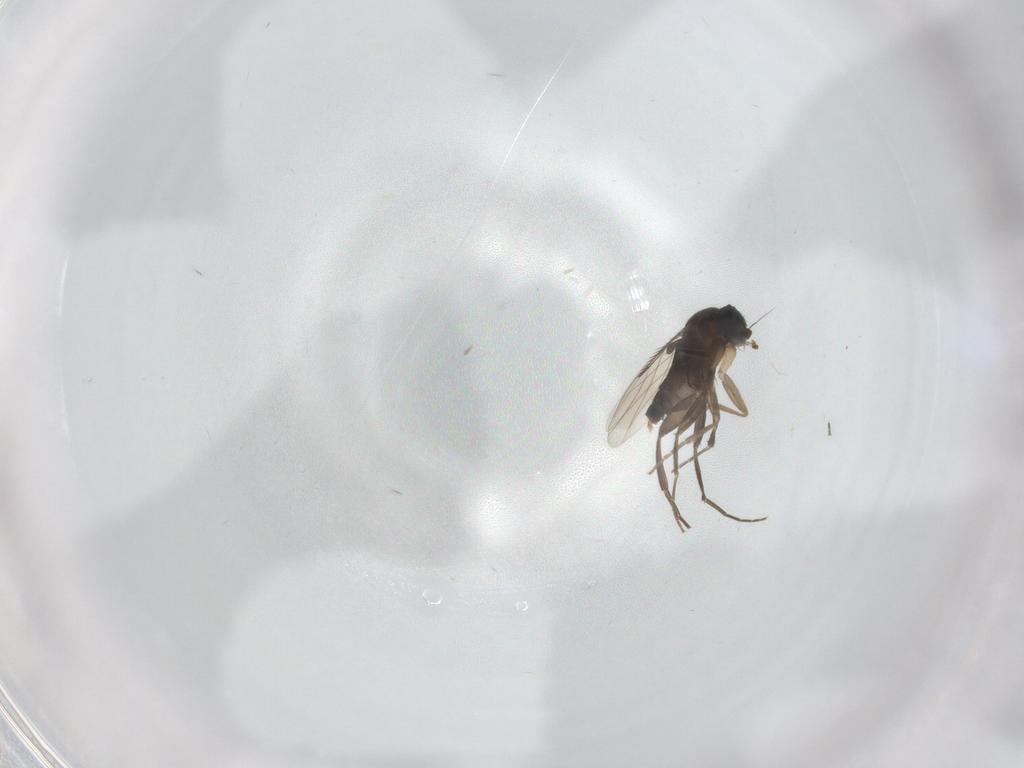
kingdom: Animalia
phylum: Arthropoda
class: Insecta
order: Diptera
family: Phoridae
